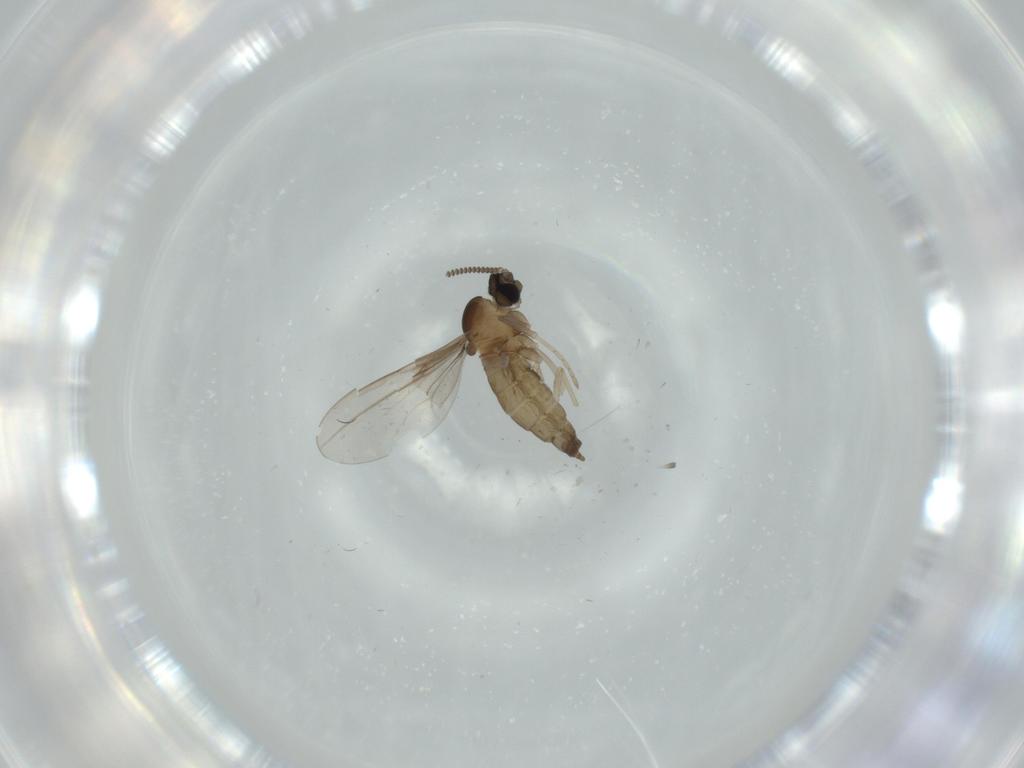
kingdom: Animalia
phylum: Arthropoda
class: Insecta
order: Diptera
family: Cecidomyiidae
